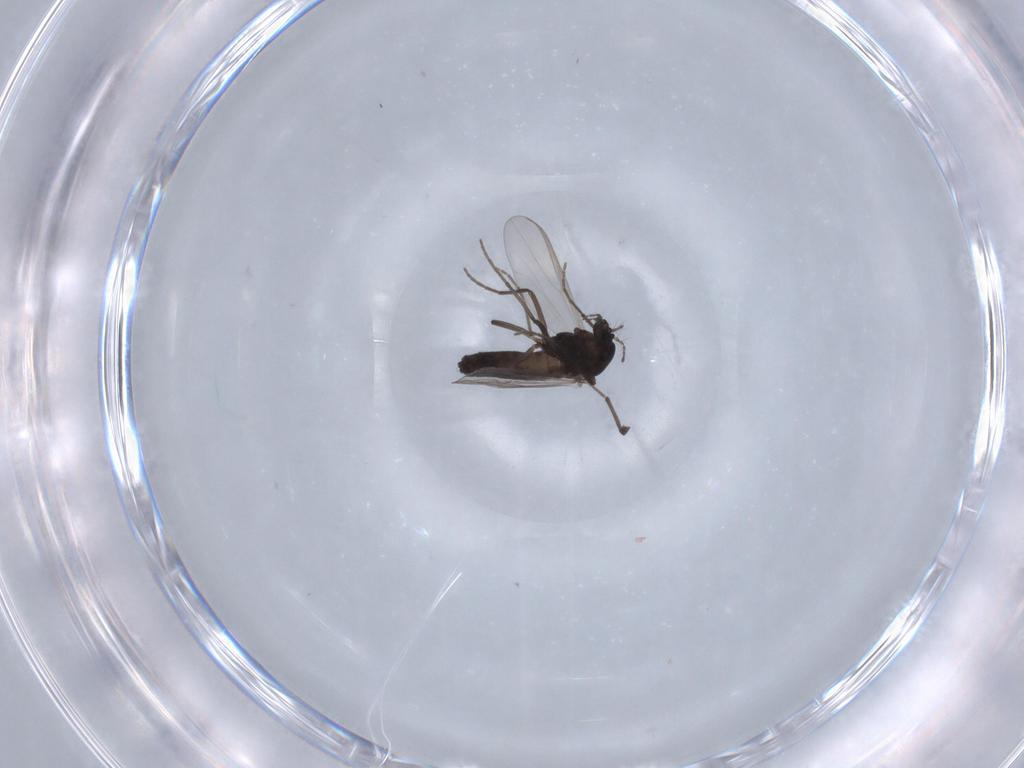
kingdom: Animalia
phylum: Arthropoda
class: Insecta
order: Diptera
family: Chironomidae
